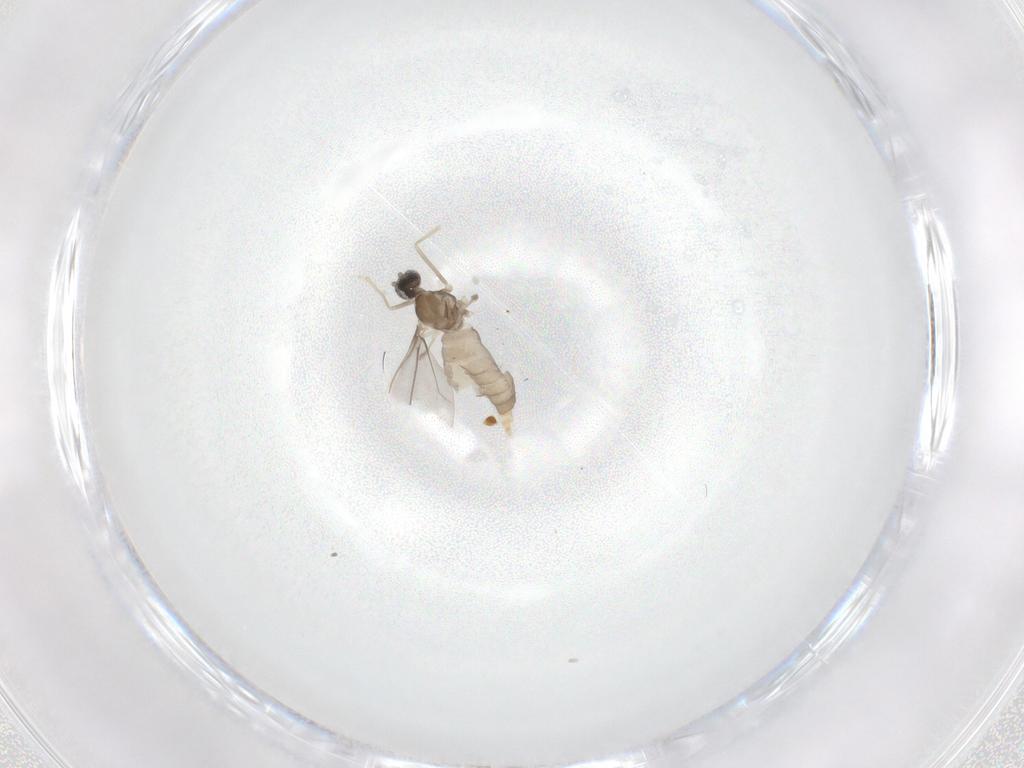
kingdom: Animalia
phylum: Arthropoda
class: Insecta
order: Diptera
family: Cecidomyiidae
